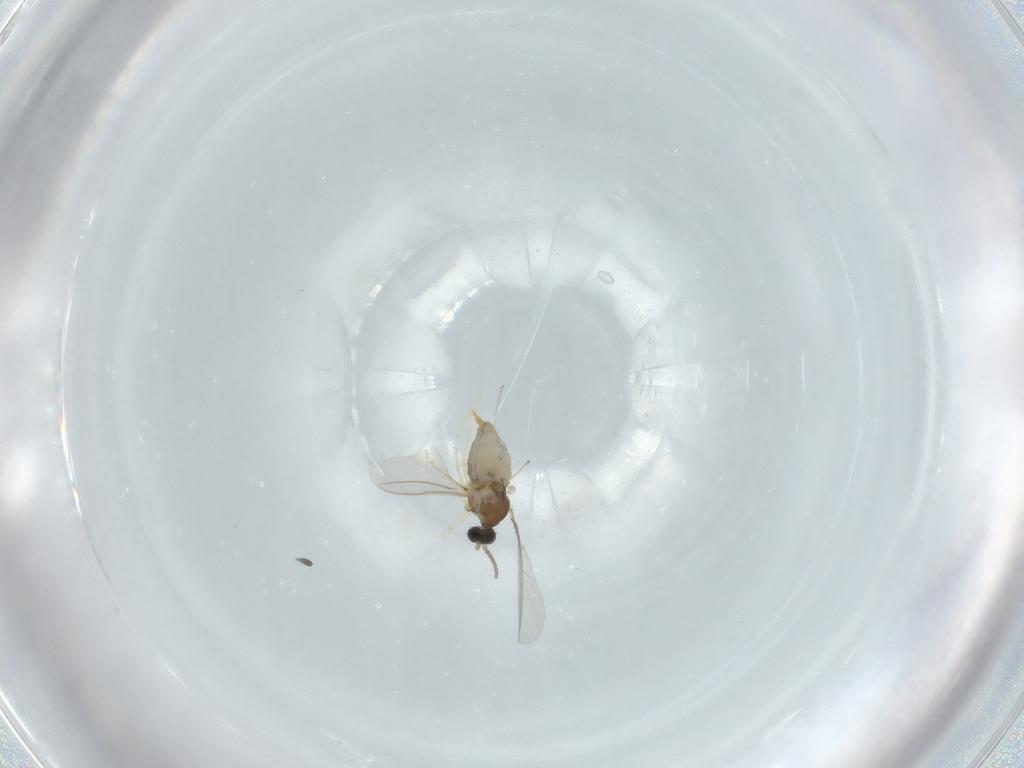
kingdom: Animalia
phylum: Arthropoda
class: Insecta
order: Diptera
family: Cecidomyiidae
